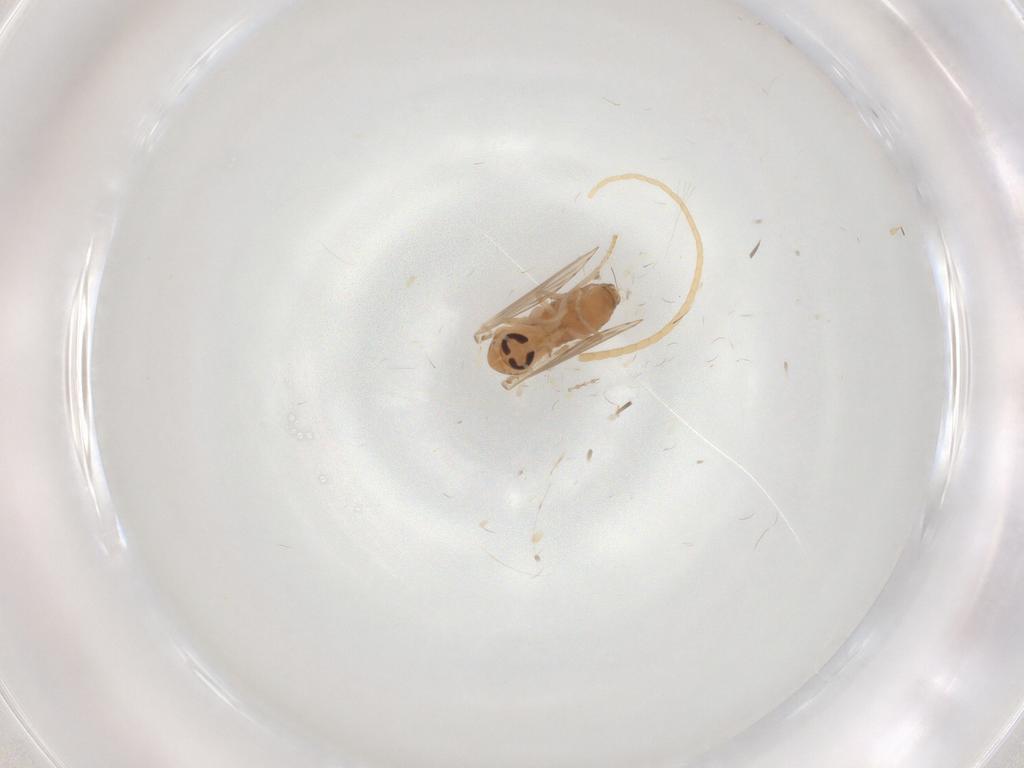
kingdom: Animalia
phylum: Arthropoda
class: Insecta
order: Diptera
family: Psychodidae
